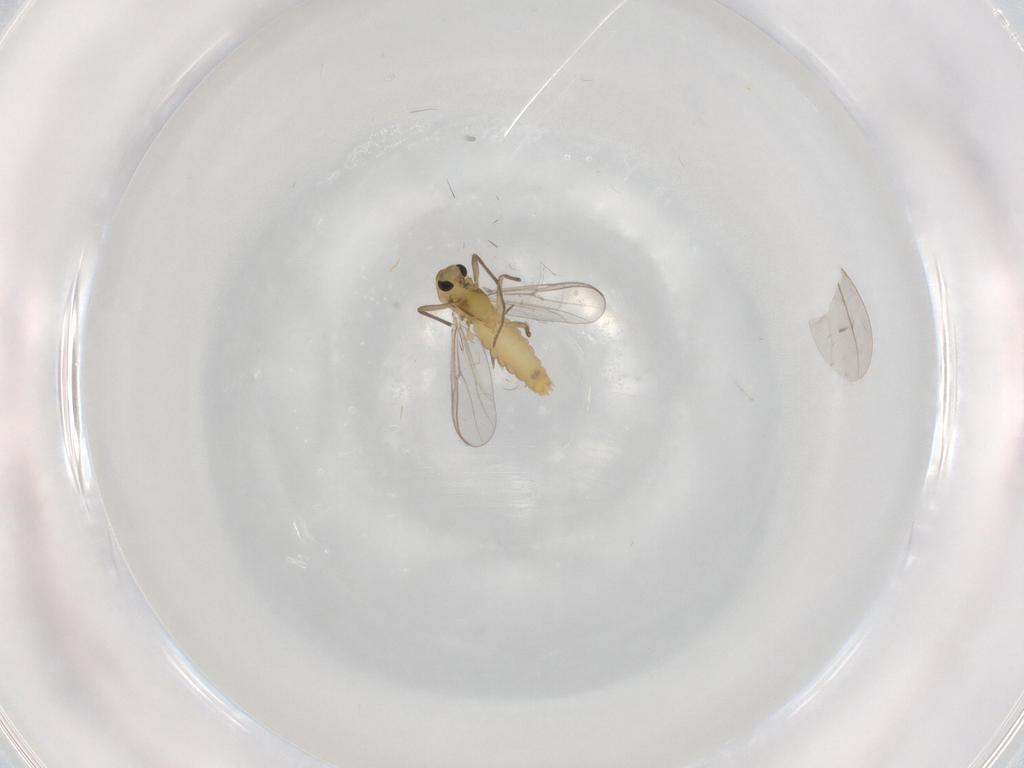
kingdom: Animalia
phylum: Arthropoda
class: Insecta
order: Diptera
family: Chironomidae
